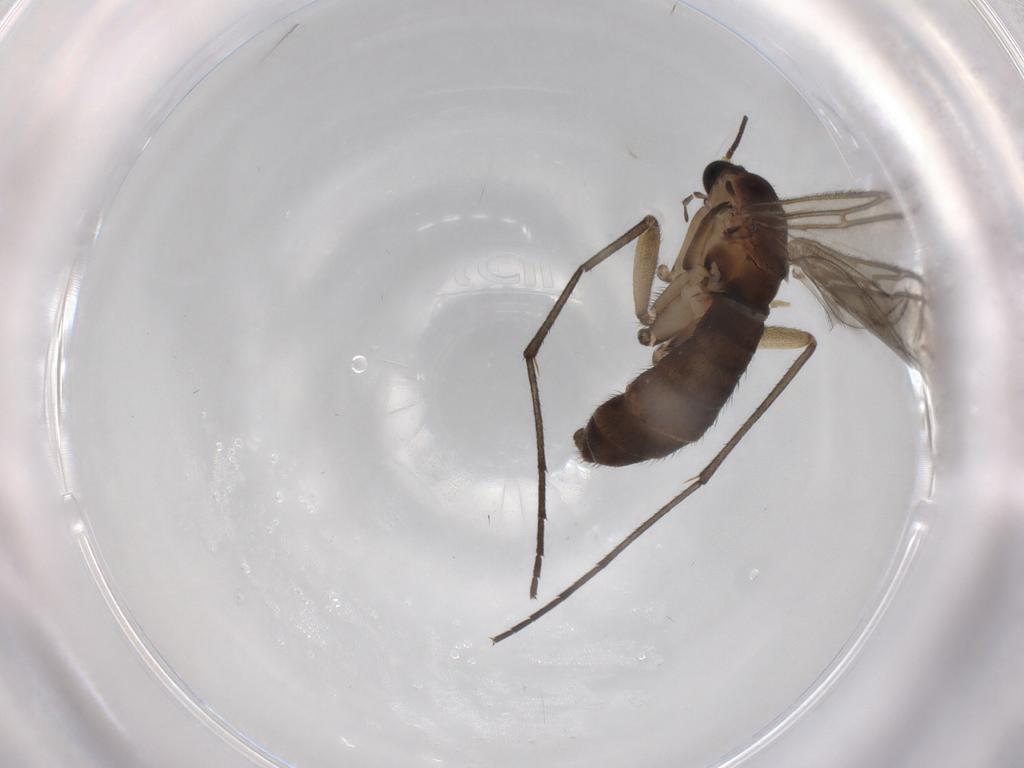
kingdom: Animalia
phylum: Arthropoda
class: Insecta
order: Diptera
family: Sciaridae
